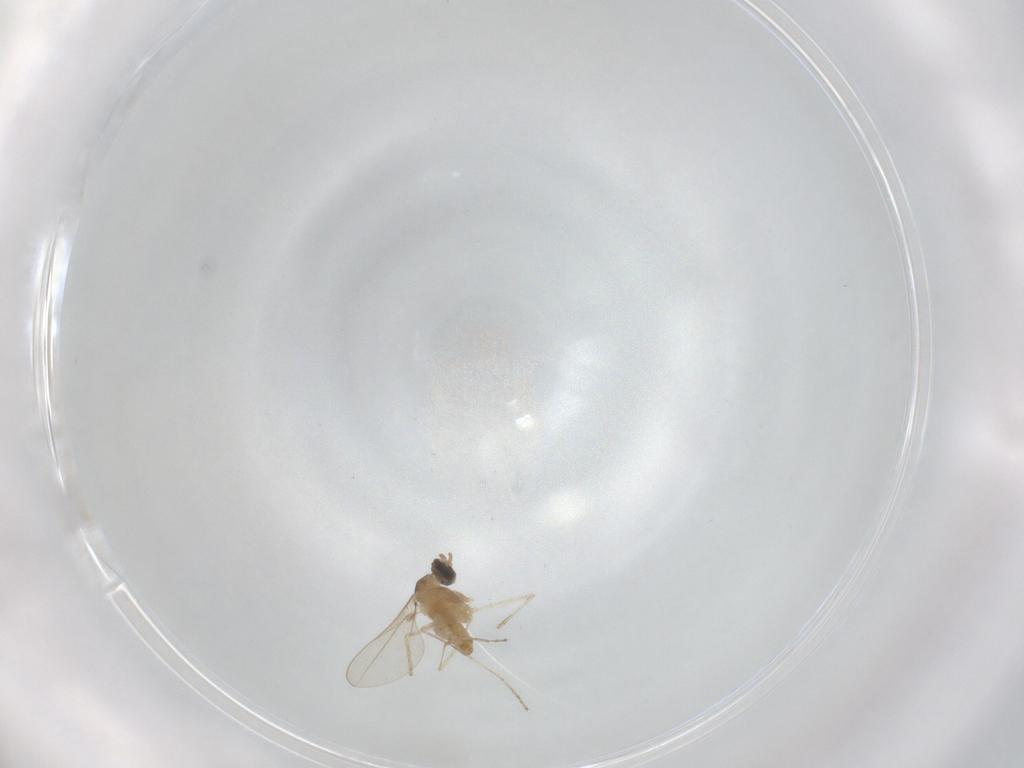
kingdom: Animalia
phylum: Arthropoda
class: Insecta
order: Diptera
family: Cecidomyiidae
